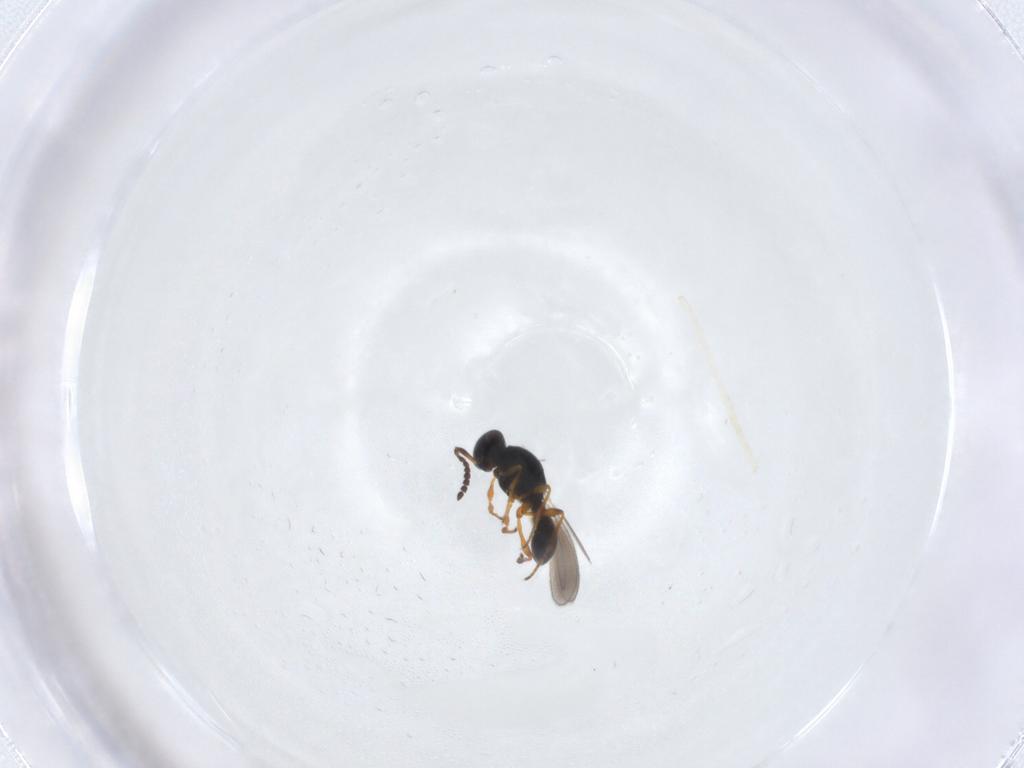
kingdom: Animalia
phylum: Arthropoda
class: Insecta
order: Hymenoptera
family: Platygastridae
